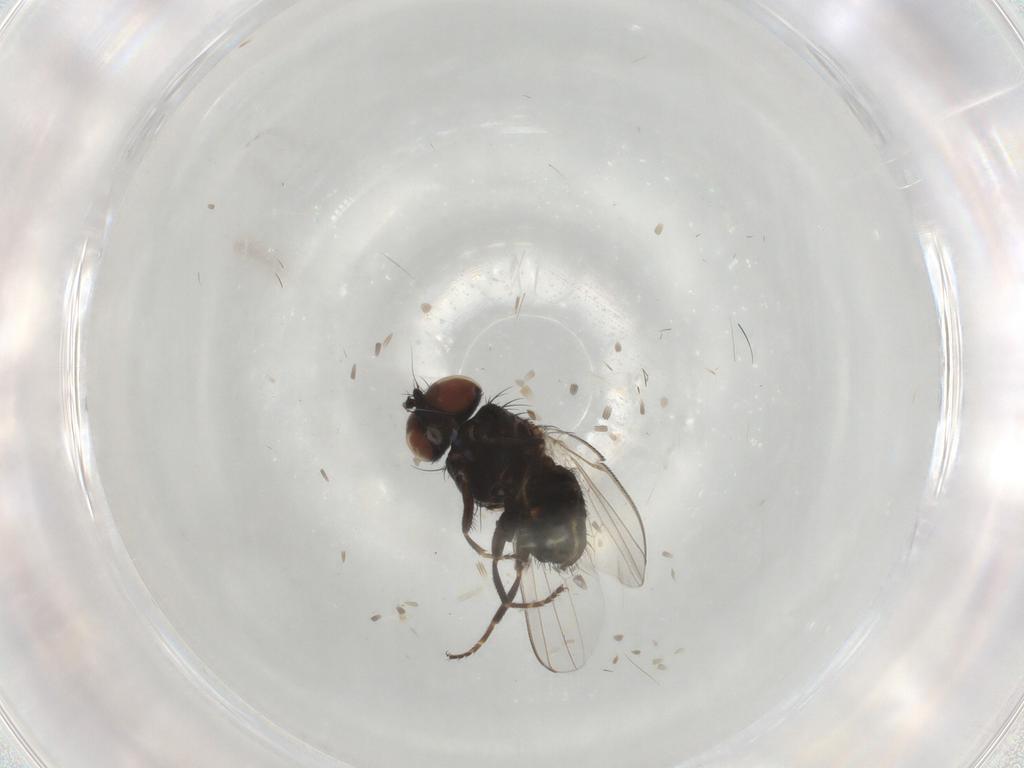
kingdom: Animalia
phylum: Arthropoda
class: Insecta
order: Diptera
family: Milichiidae
